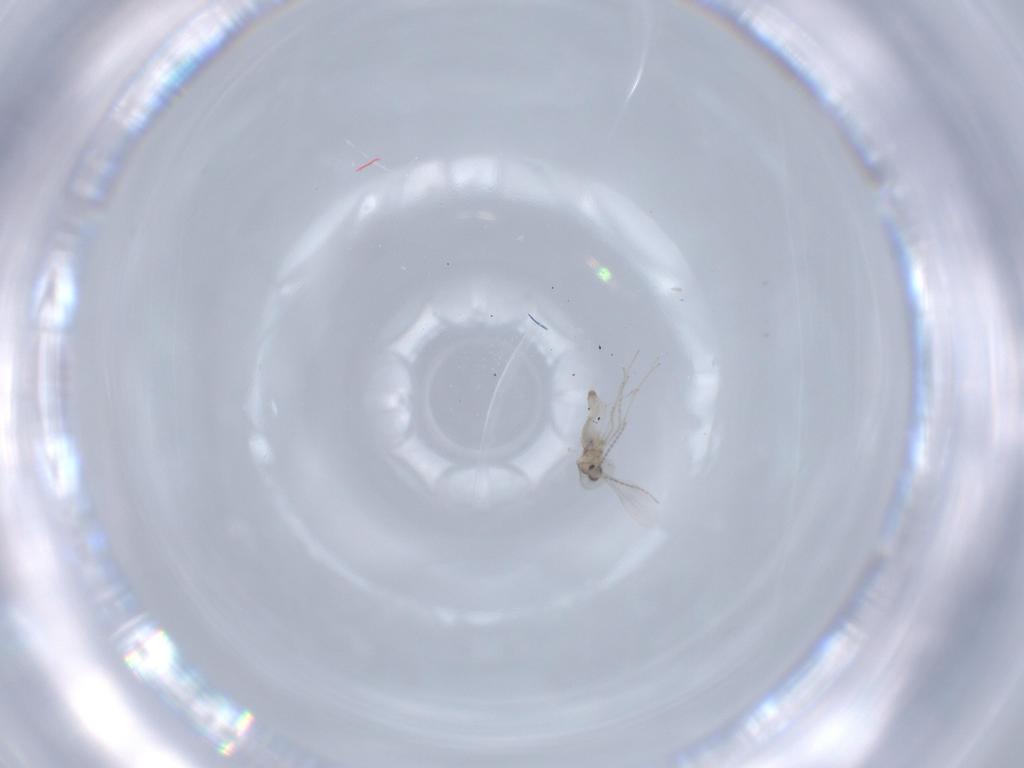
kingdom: Animalia
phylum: Arthropoda
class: Insecta
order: Diptera
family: Cecidomyiidae
